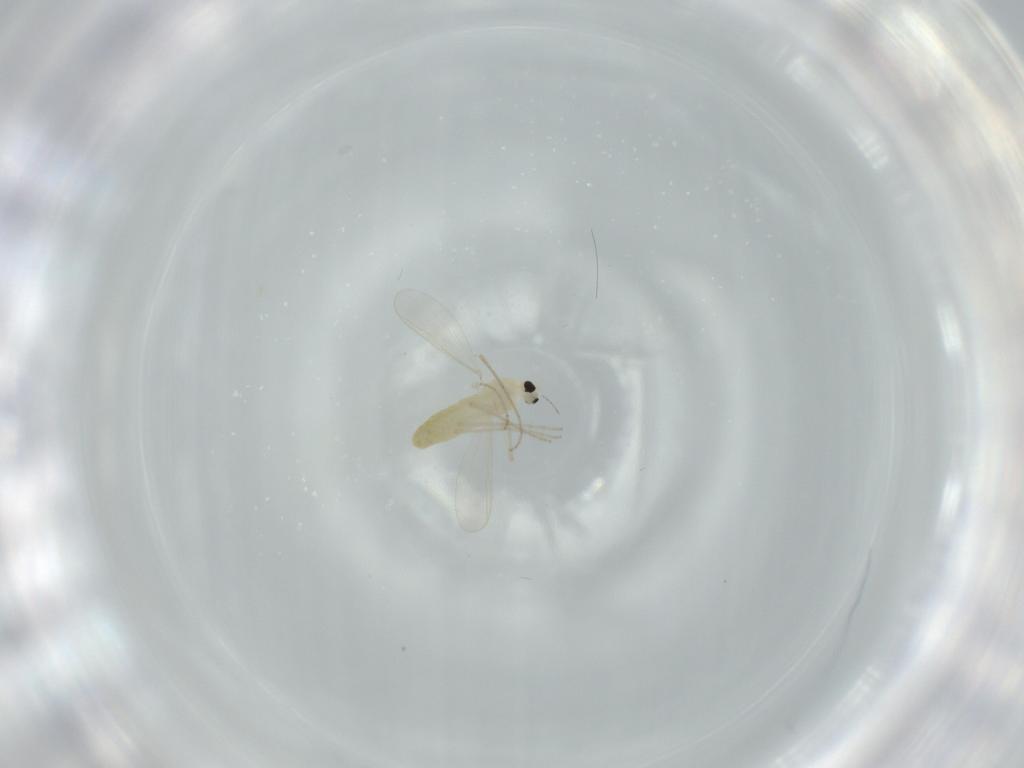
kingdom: Animalia
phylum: Arthropoda
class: Insecta
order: Diptera
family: Chironomidae
